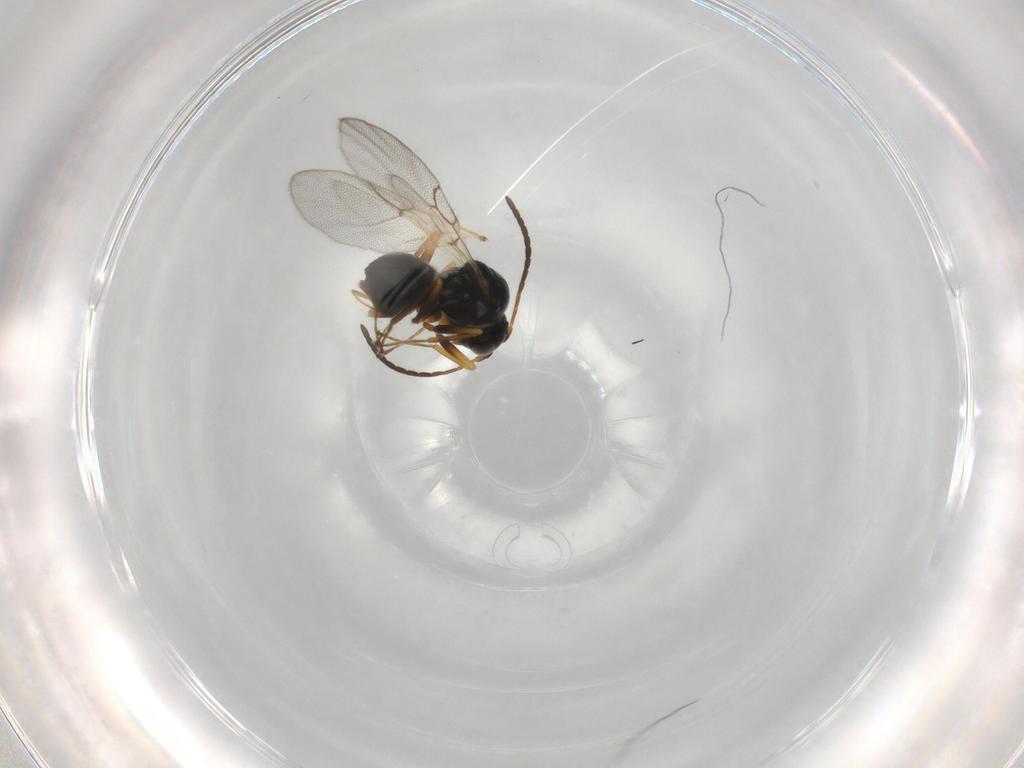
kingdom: Animalia
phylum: Arthropoda
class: Insecta
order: Hymenoptera
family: Figitidae
